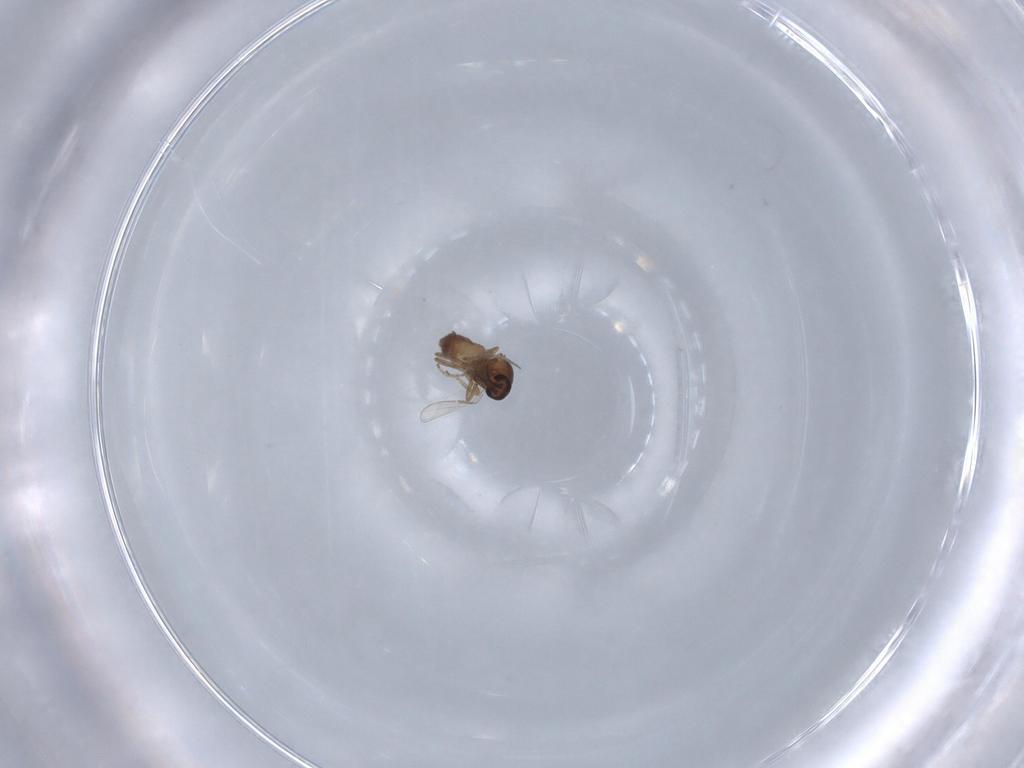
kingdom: Animalia
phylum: Arthropoda
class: Insecta
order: Diptera
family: Ceratopogonidae
